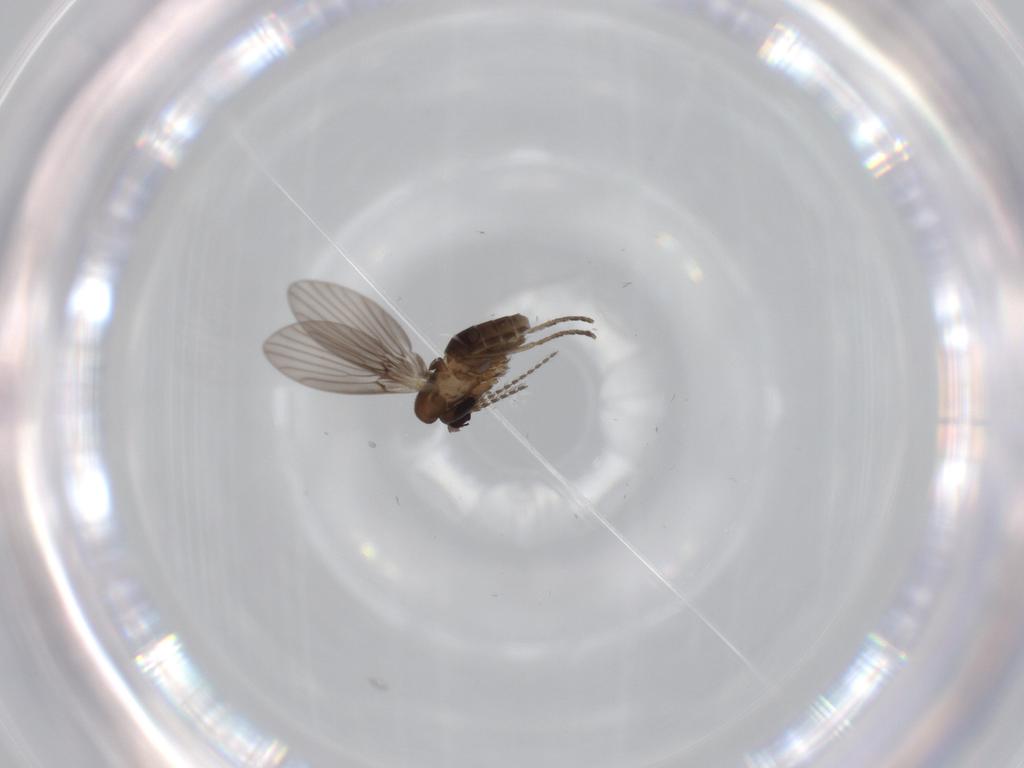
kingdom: Animalia
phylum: Arthropoda
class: Insecta
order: Diptera
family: Psychodidae
